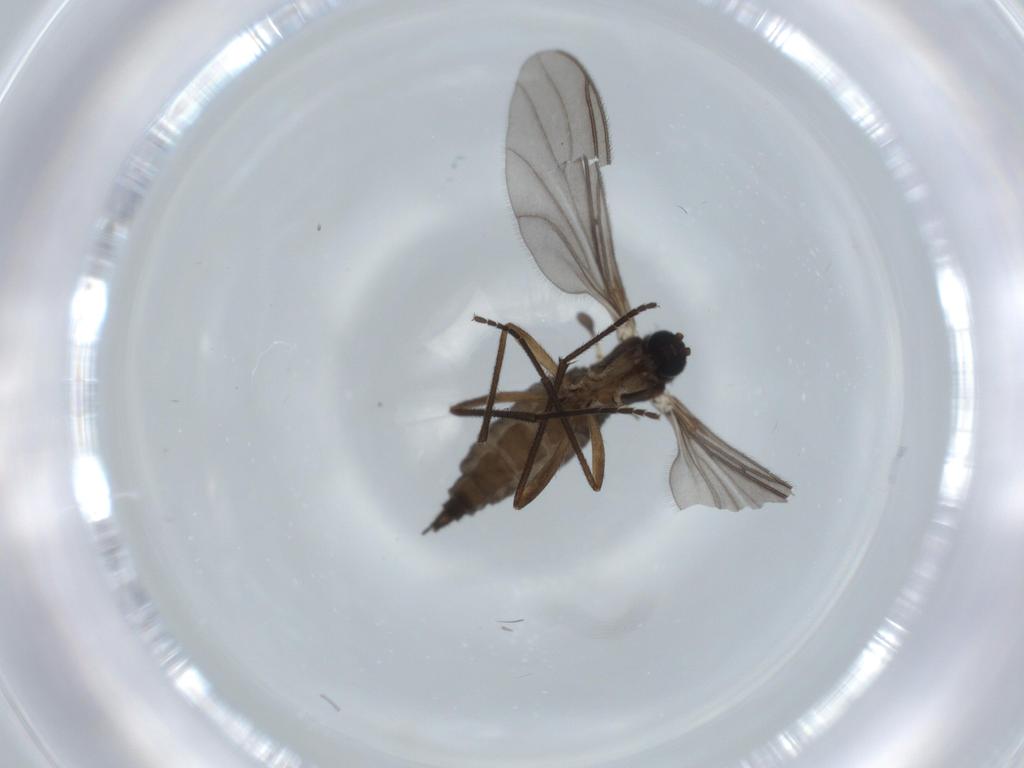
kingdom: Animalia
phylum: Arthropoda
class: Insecta
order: Diptera
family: Sciaridae
